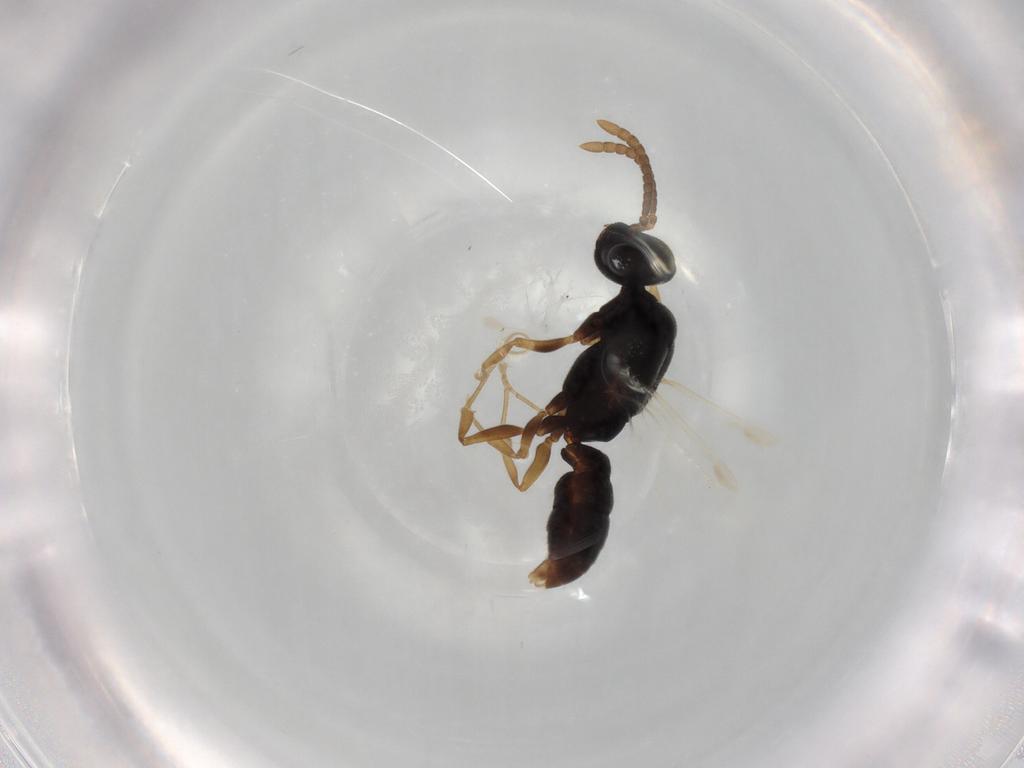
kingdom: Animalia
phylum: Arthropoda
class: Insecta
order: Hymenoptera
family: Formicidae
